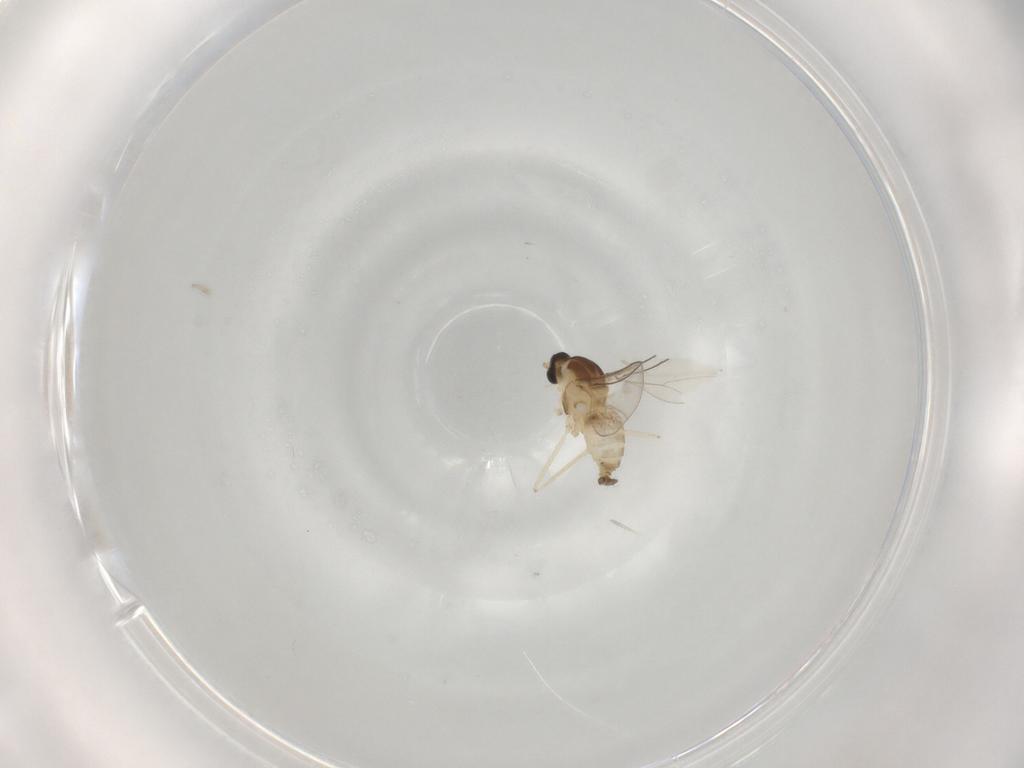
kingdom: Animalia
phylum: Arthropoda
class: Insecta
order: Diptera
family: Cecidomyiidae
